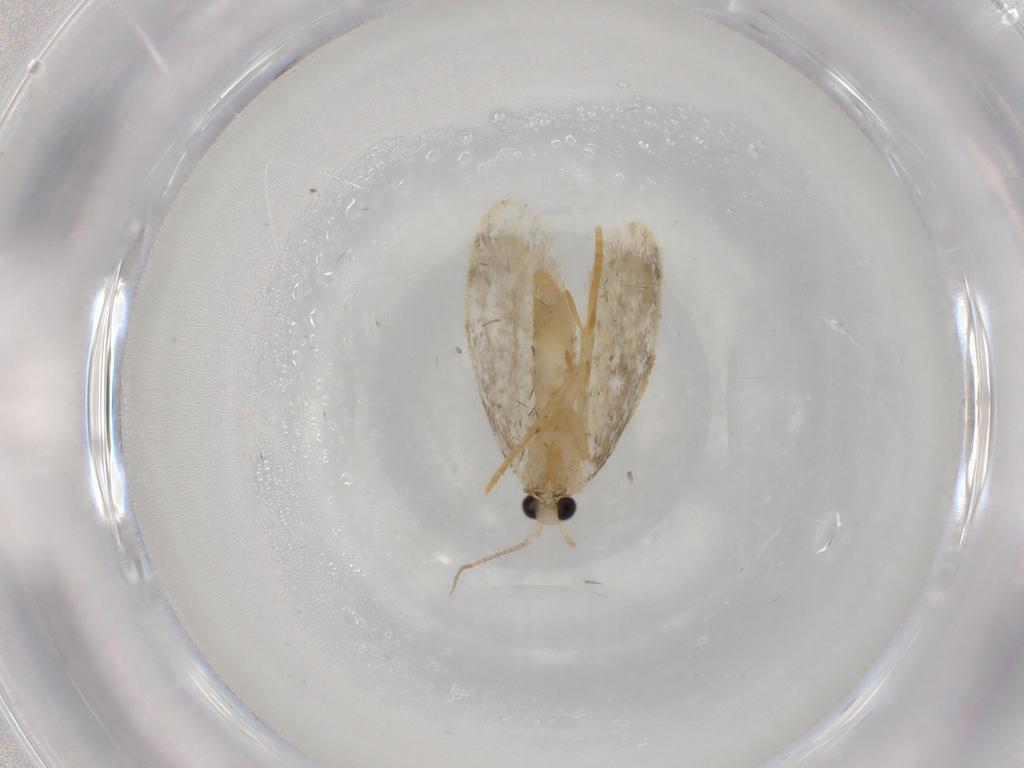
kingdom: Animalia
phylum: Arthropoda
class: Insecta
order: Lepidoptera
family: Psychidae
